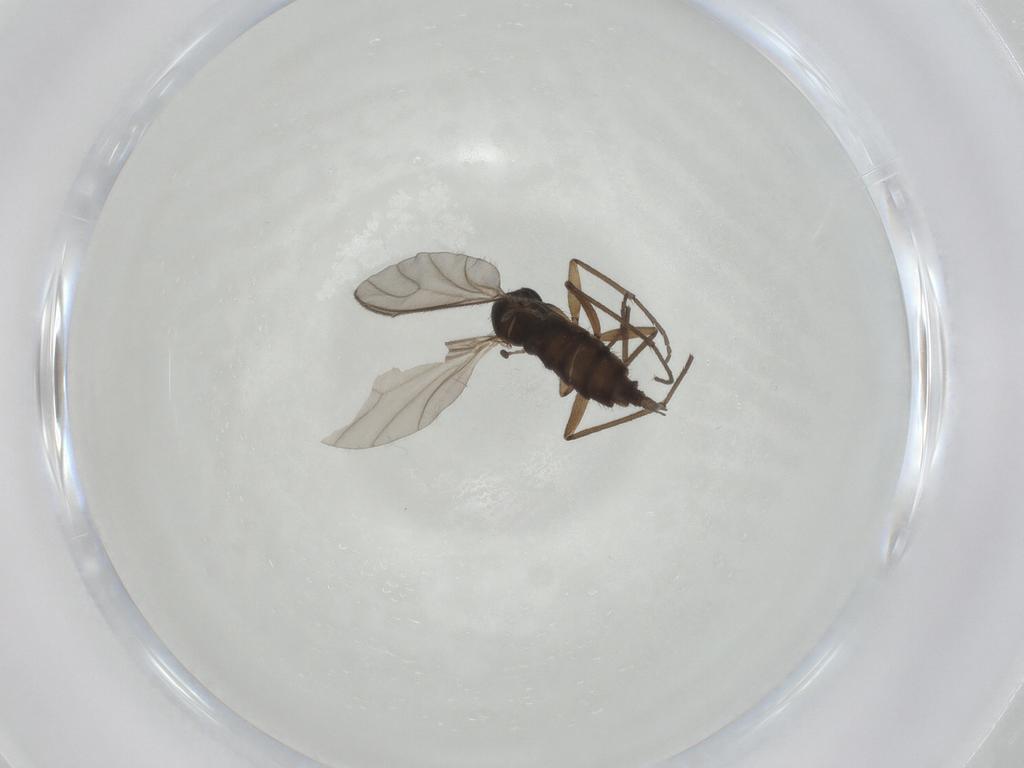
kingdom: Animalia
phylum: Arthropoda
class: Insecta
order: Diptera
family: Sciaridae
